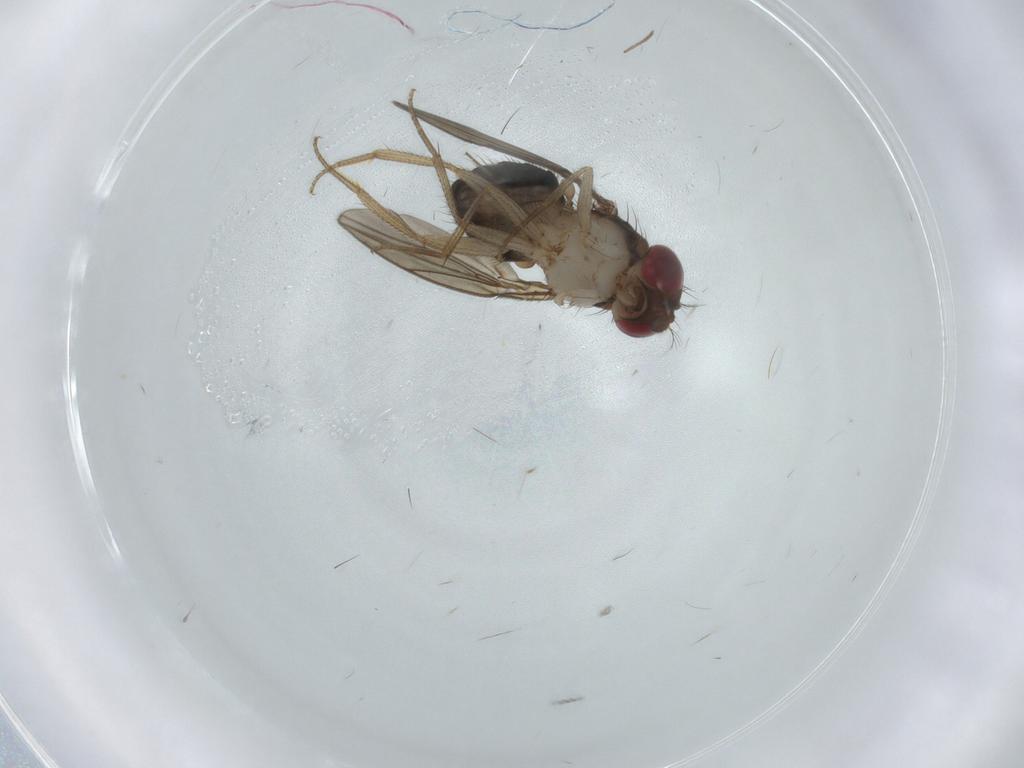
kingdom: Animalia
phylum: Arthropoda
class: Insecta
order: Diptera
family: Drosophilidae
